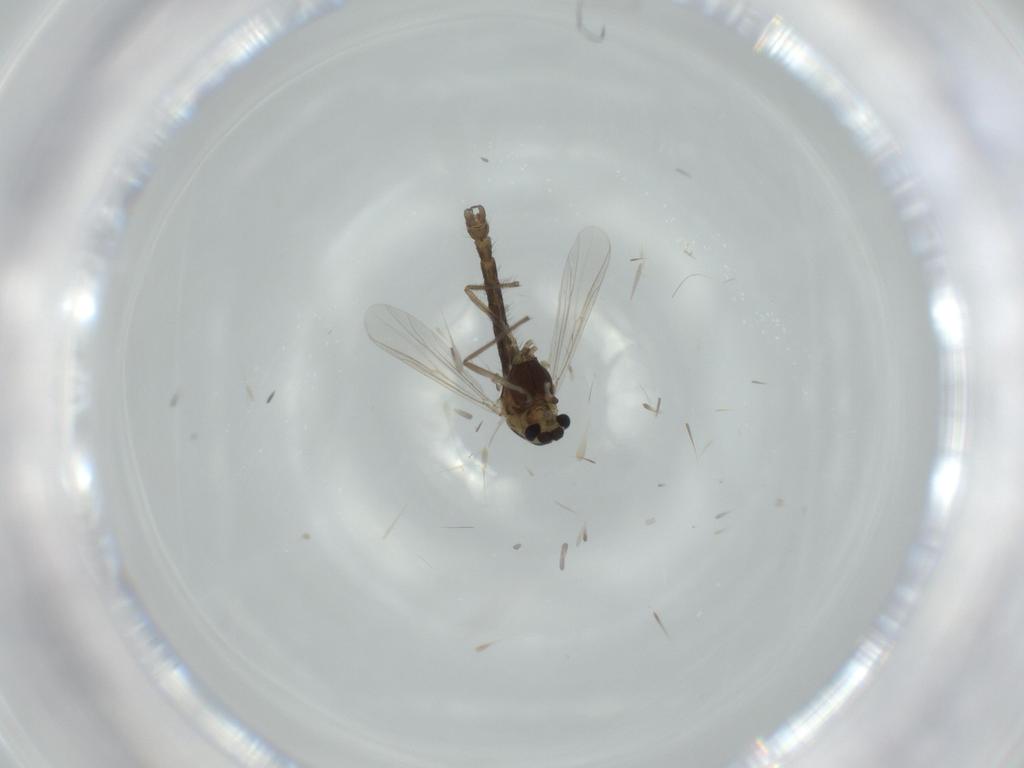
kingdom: Animalia
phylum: Arthropoda
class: Insecta
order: Diptera
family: Chironomidae
